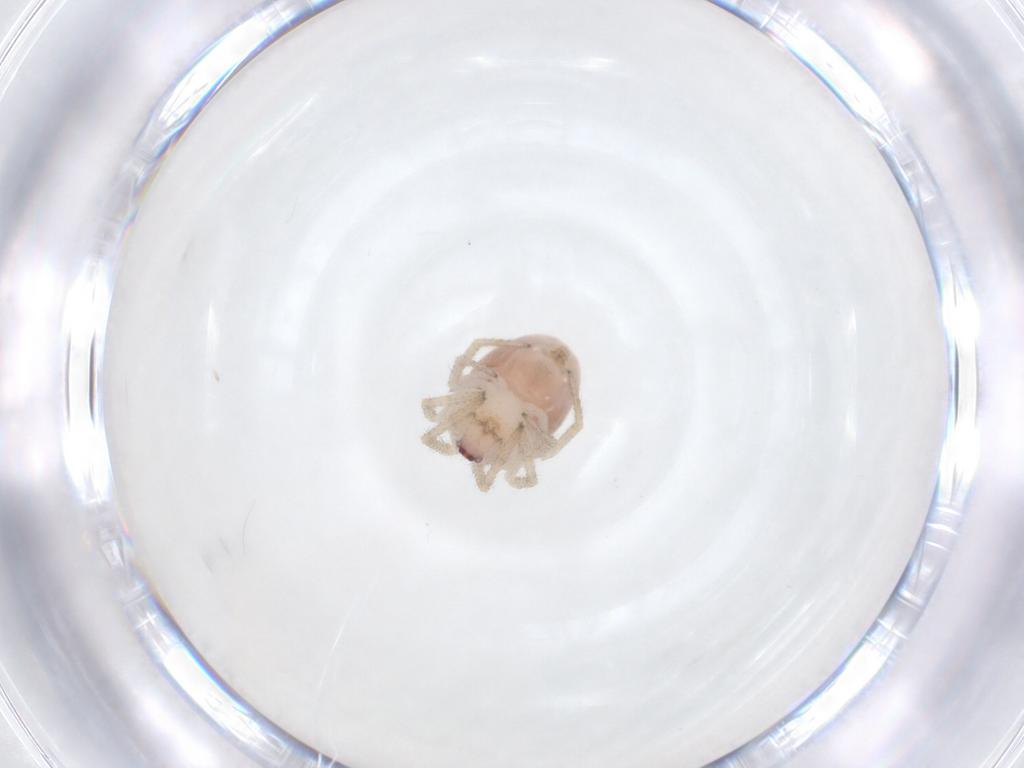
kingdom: Animalia
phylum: Arthropoda
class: Arachnida
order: Araneae
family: Theridiidae
